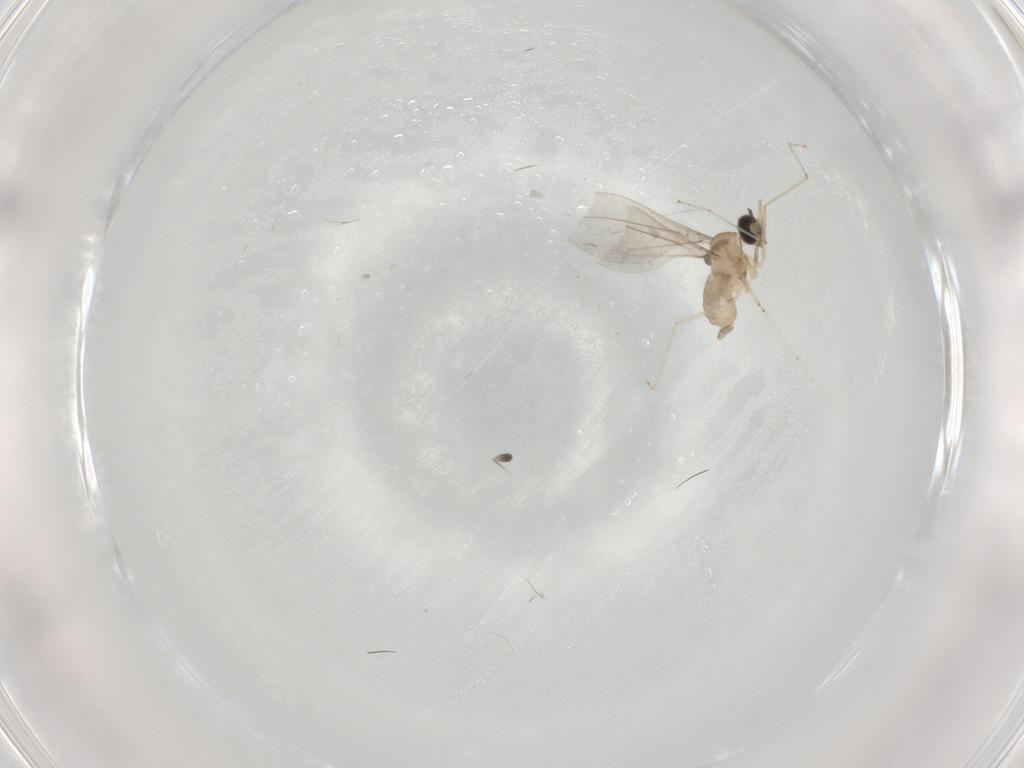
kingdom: Animalia
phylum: Arthropoda
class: Insecta
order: Diptera
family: Cecidomyiidae
